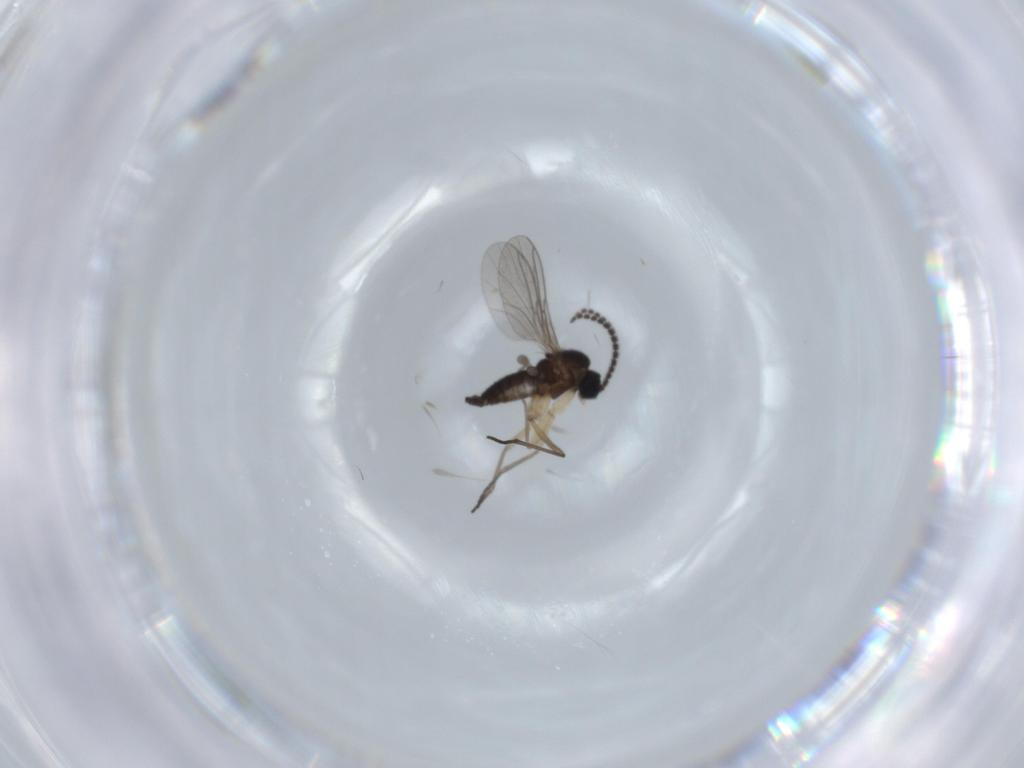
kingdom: Animalia
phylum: Arthropoda
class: Insecta
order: Diptera
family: Sciaridae
